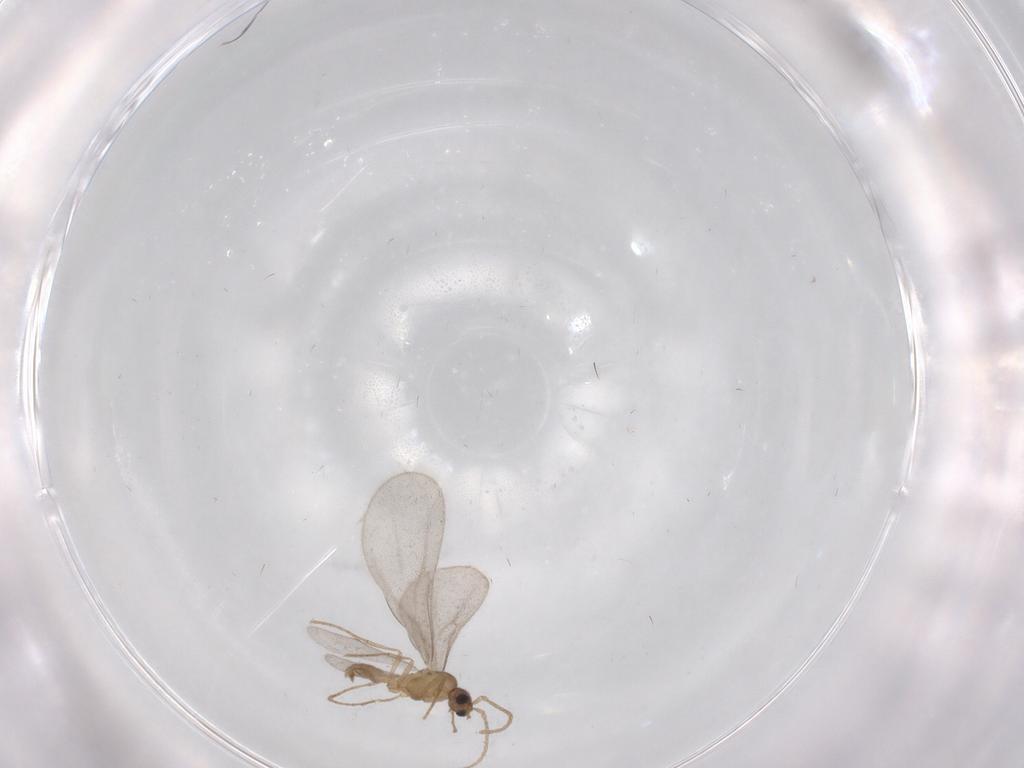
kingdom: Animalia
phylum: Arthropoda
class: Insecta
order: Hymenoptera
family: Formicidae
